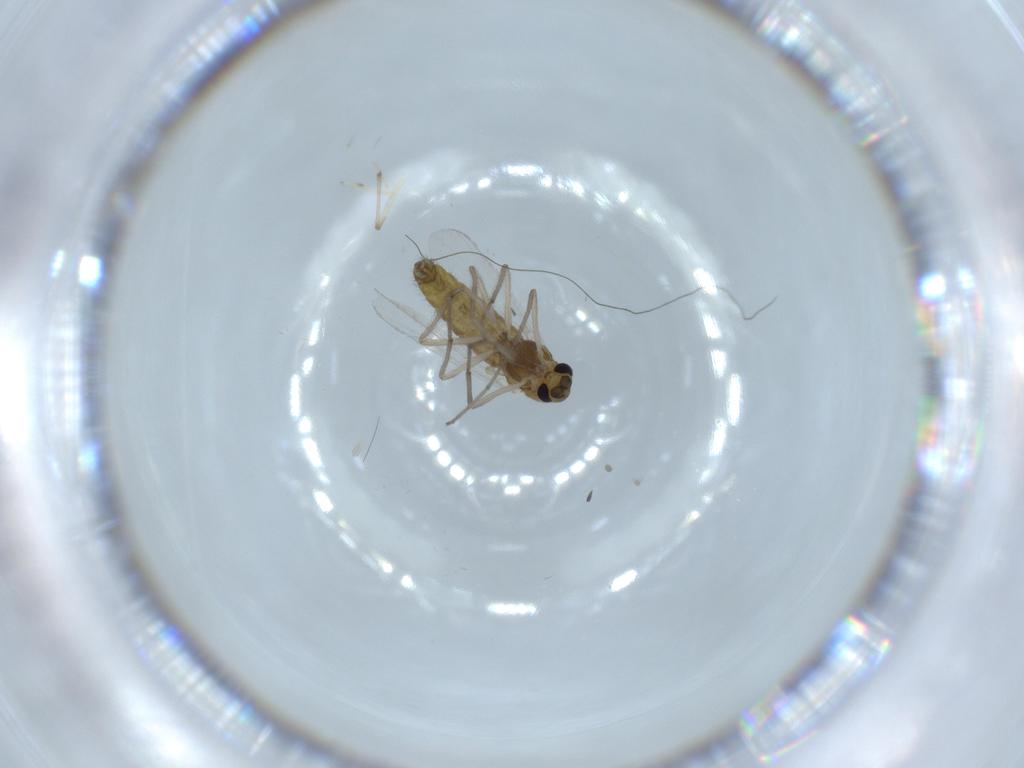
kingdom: Animalia
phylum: Arthropoda
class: Insecta
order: Diptera
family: Chironomidae
